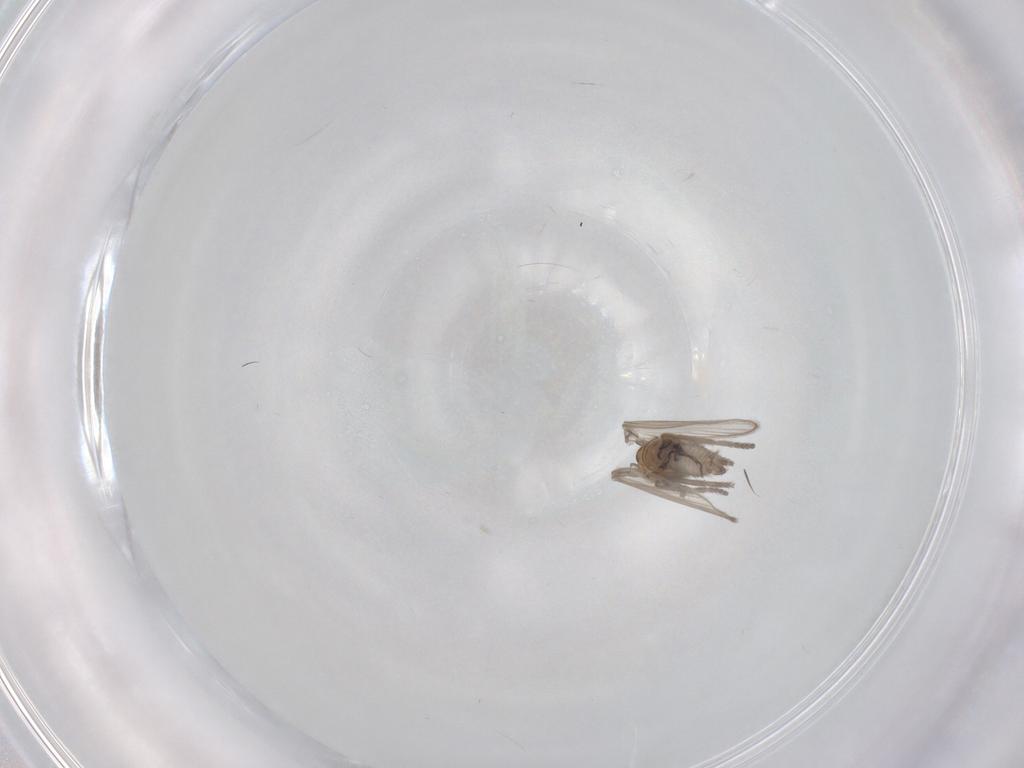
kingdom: Animalia
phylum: Arthropoda
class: Insecta
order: Diptera
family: Psychodidae
